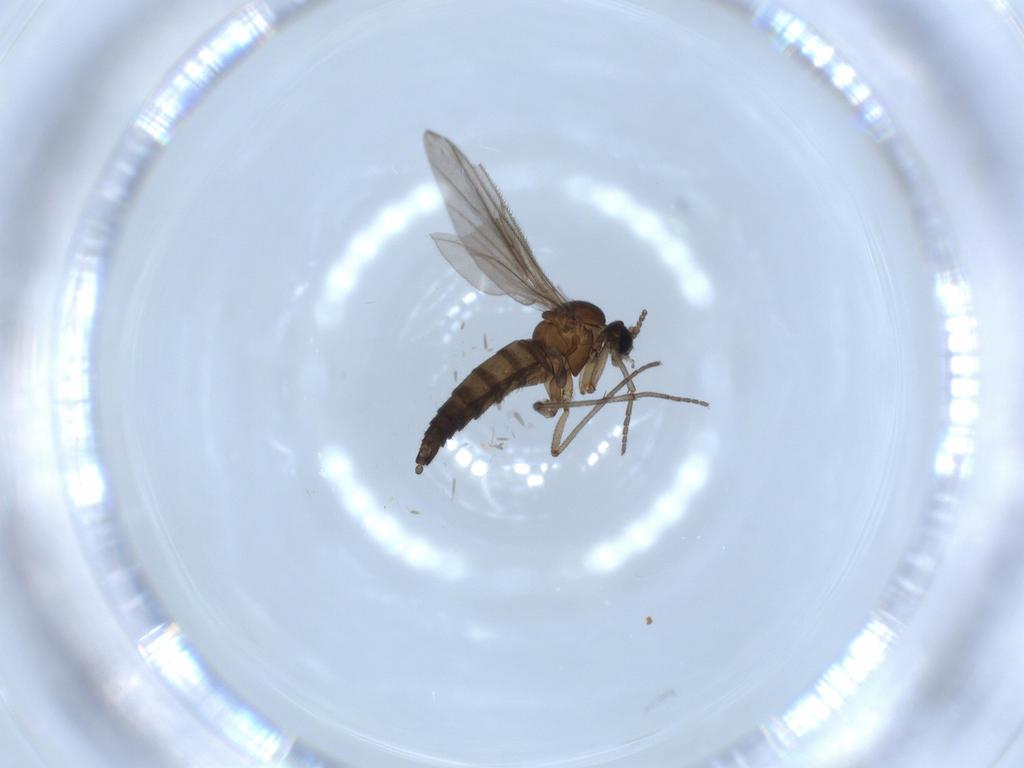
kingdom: Animalia
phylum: Arthropoda
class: Insecta
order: Diptera
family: Sciaridae
